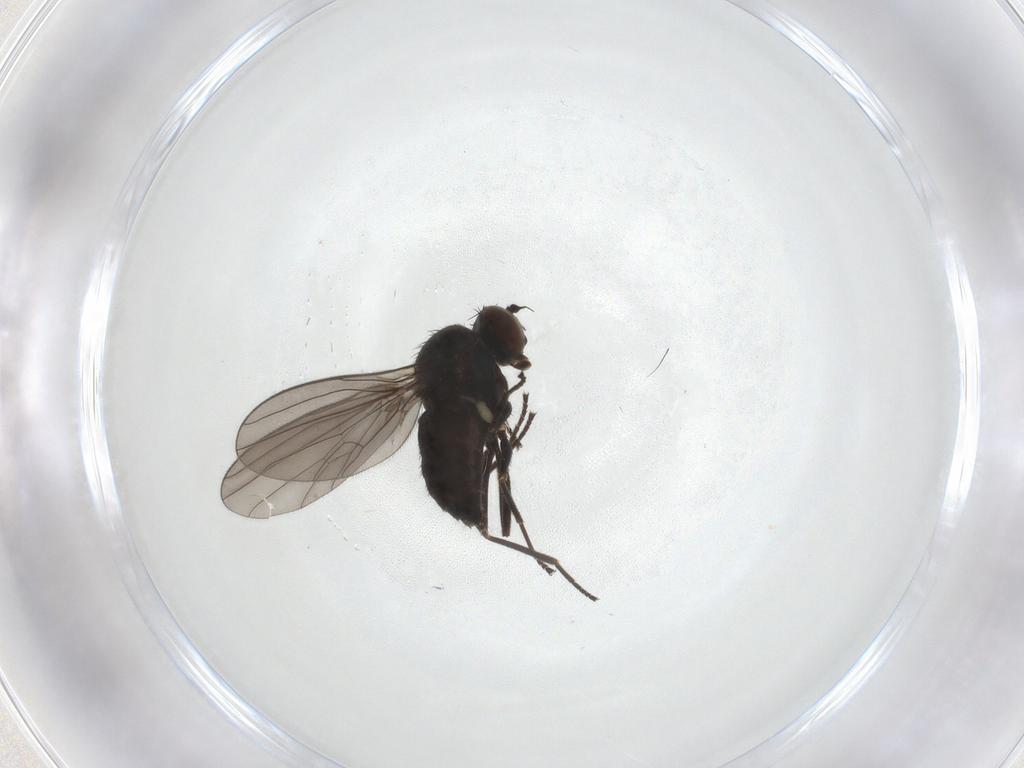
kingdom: Animalia
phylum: Arthropoda
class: Insecta
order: Diptera
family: Dolichopodidae
